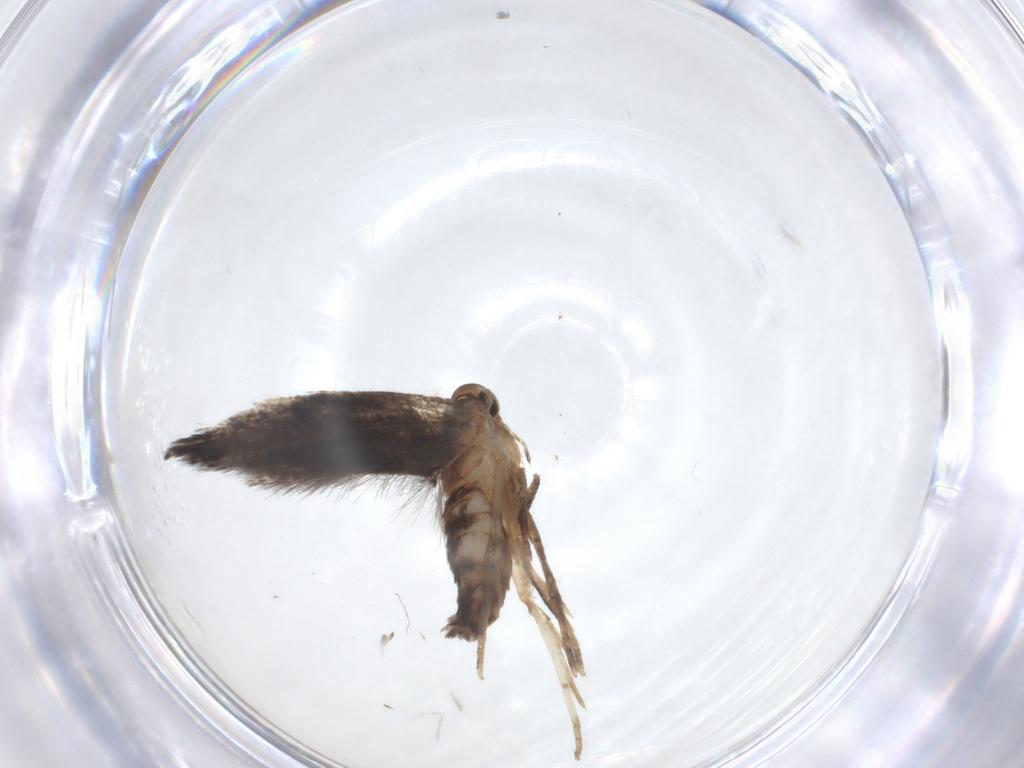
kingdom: Animalia
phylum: Arthropoda
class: Insecta
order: Lepidoptera
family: Elachistidae
